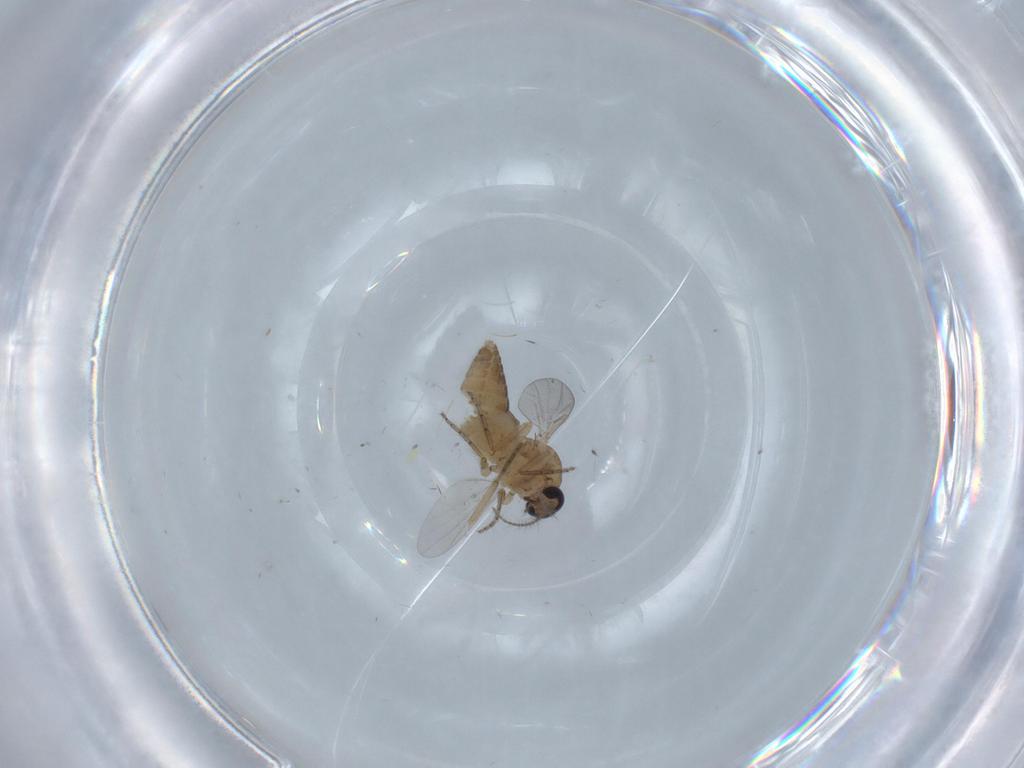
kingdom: Animalia
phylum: Arthropoda
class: Insecta
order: Diptera
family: Ceratopogonidae
